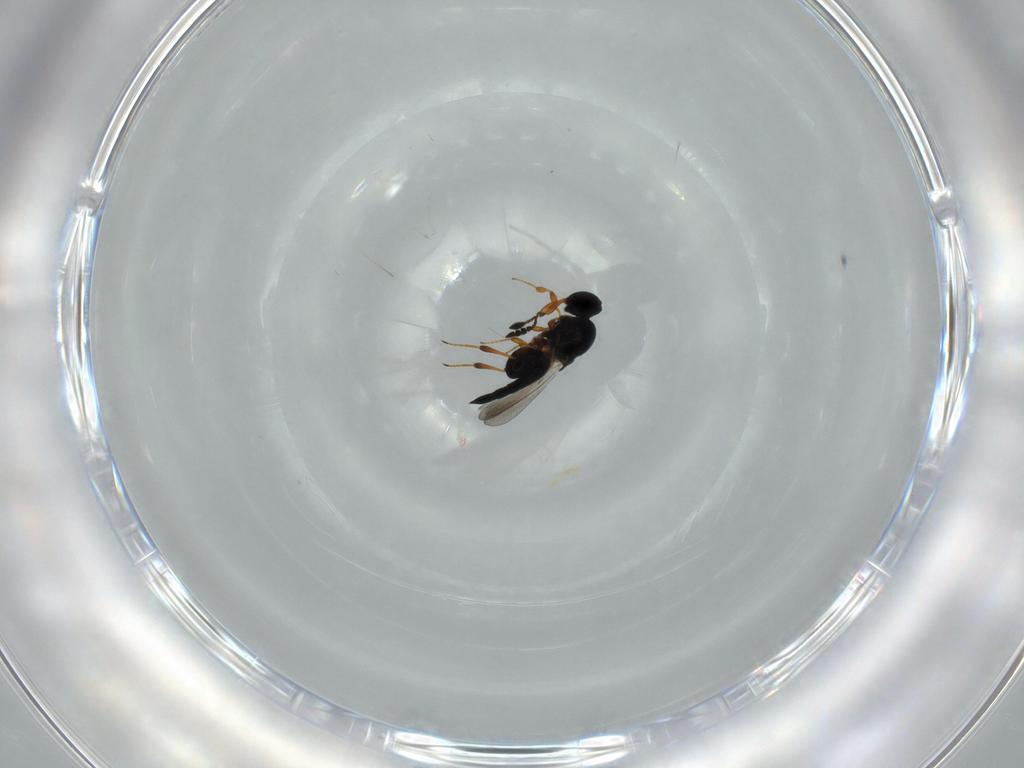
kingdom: Animalia
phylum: Arthropoda
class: Insecta
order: Hymenoptera
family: Platygastridae
